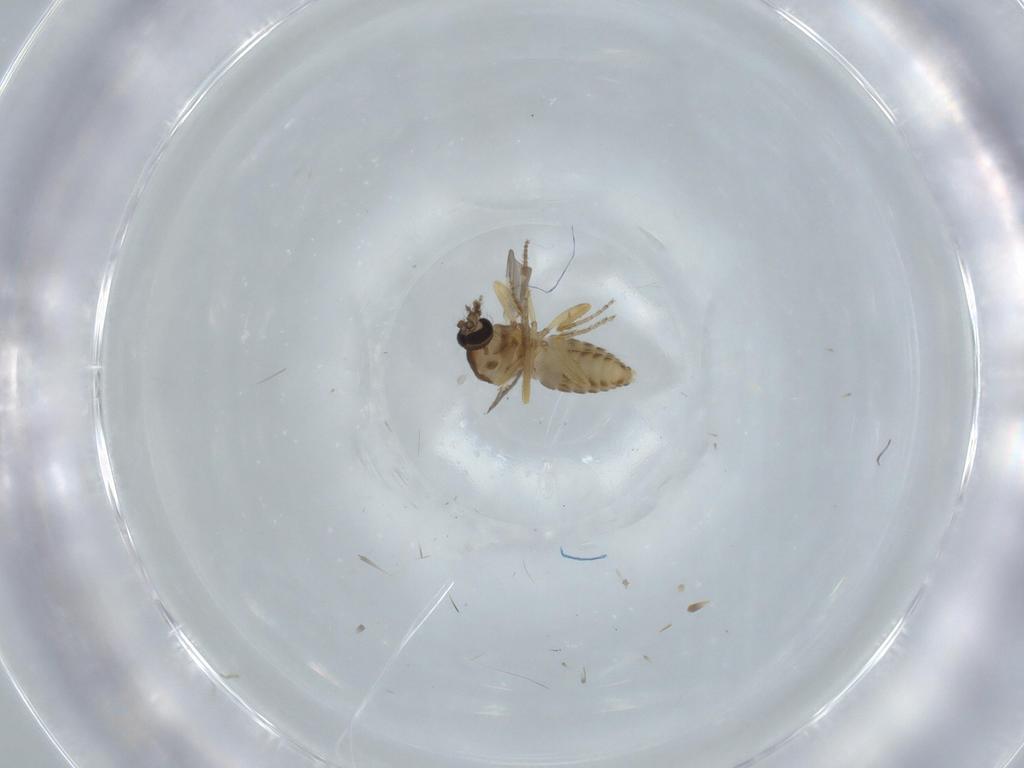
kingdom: Animalia
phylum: Arthropoda
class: Insecta
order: Diptera
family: Ceratopogonidae
